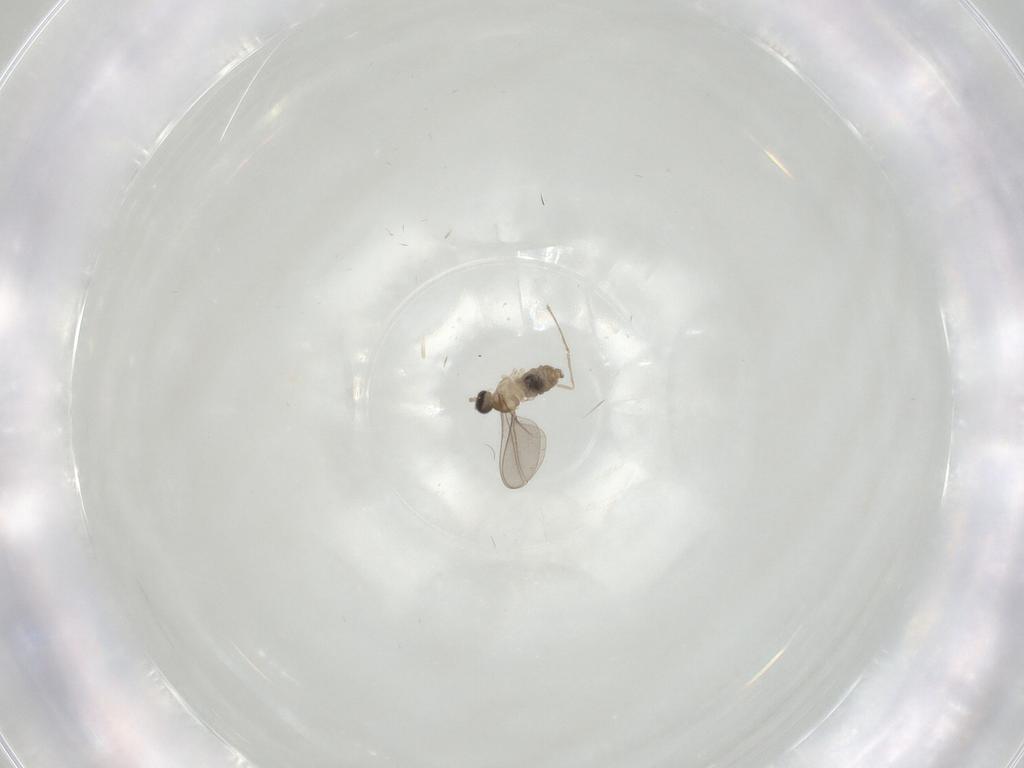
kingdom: Animalia
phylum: Arthropoda
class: Insecta
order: Diptera
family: Cecidomyiidae
